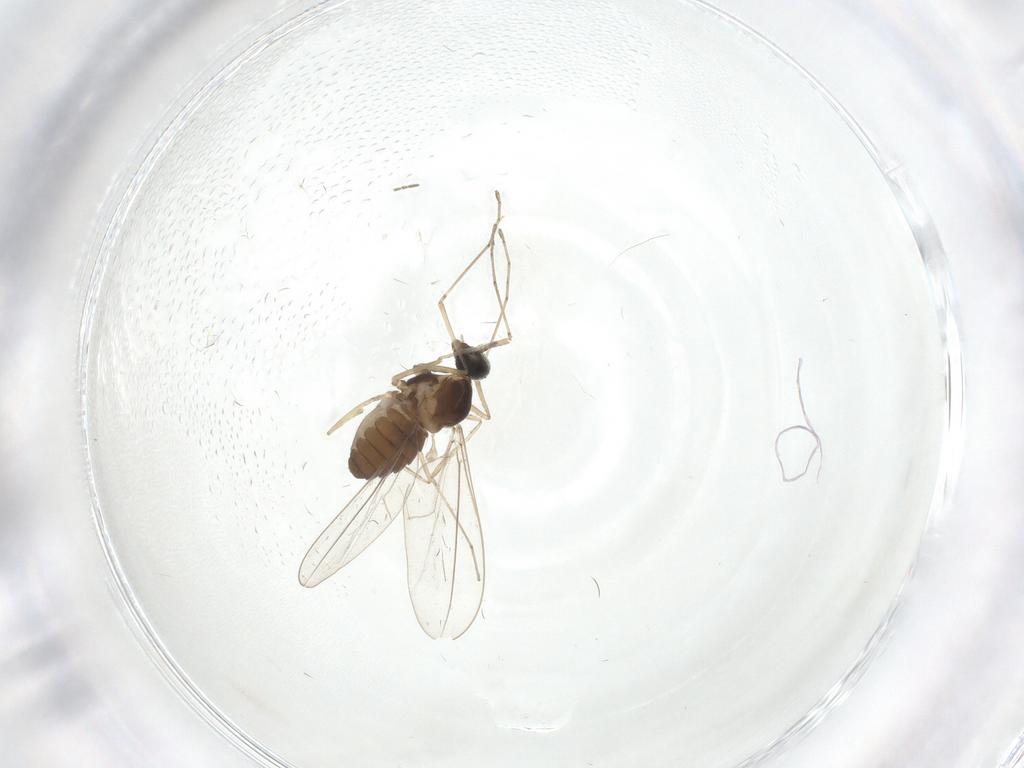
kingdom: Animalia
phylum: Arthropoda
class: Insecta
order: Diptera
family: Cecidomyiidae
